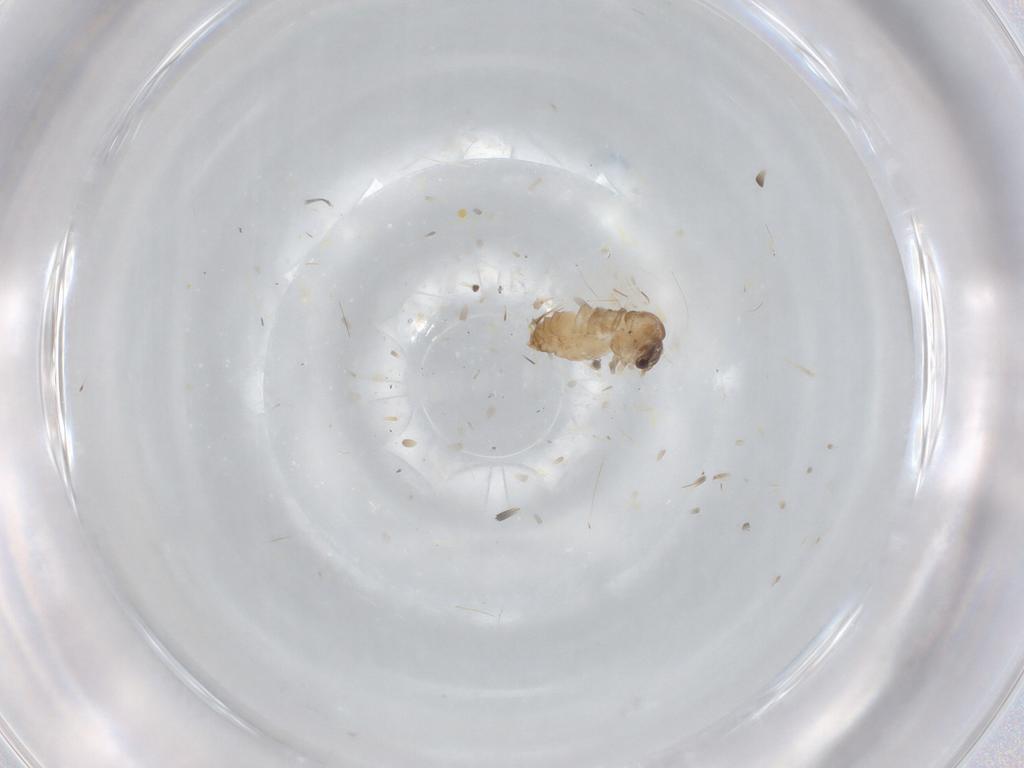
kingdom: Animalia
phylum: Arthropoda
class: Insecta
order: Diptera
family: Psychodidae
